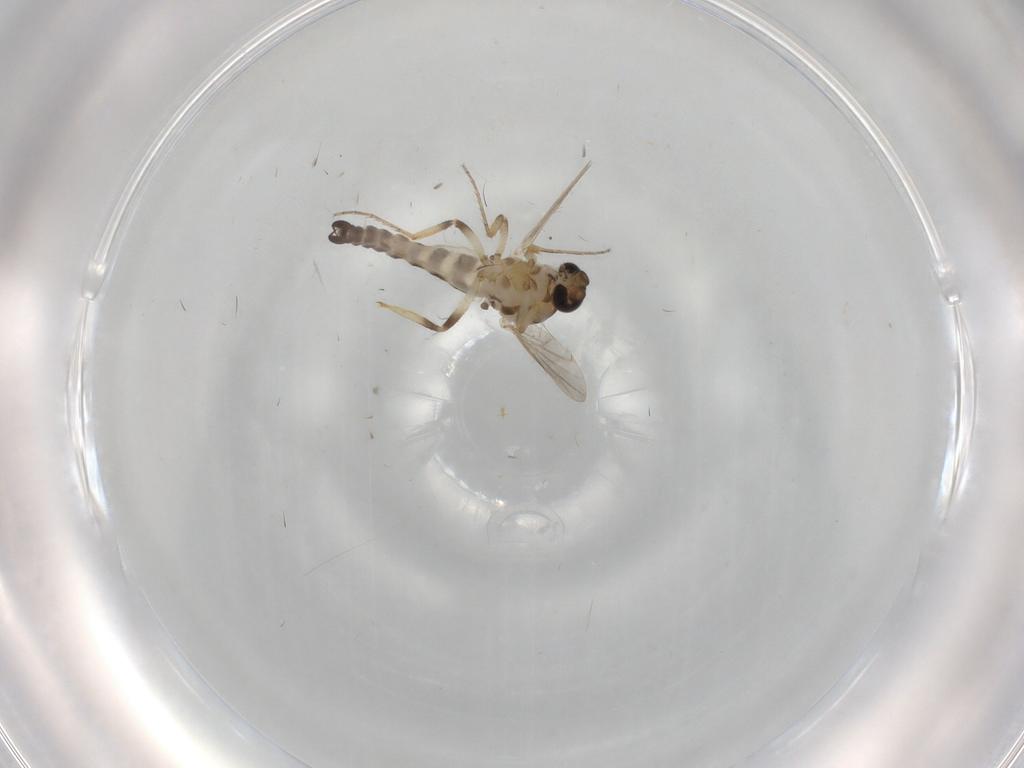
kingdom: Animalia
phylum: Arthropoda
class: Insecta
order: Diptera
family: Ceratopogonidae
